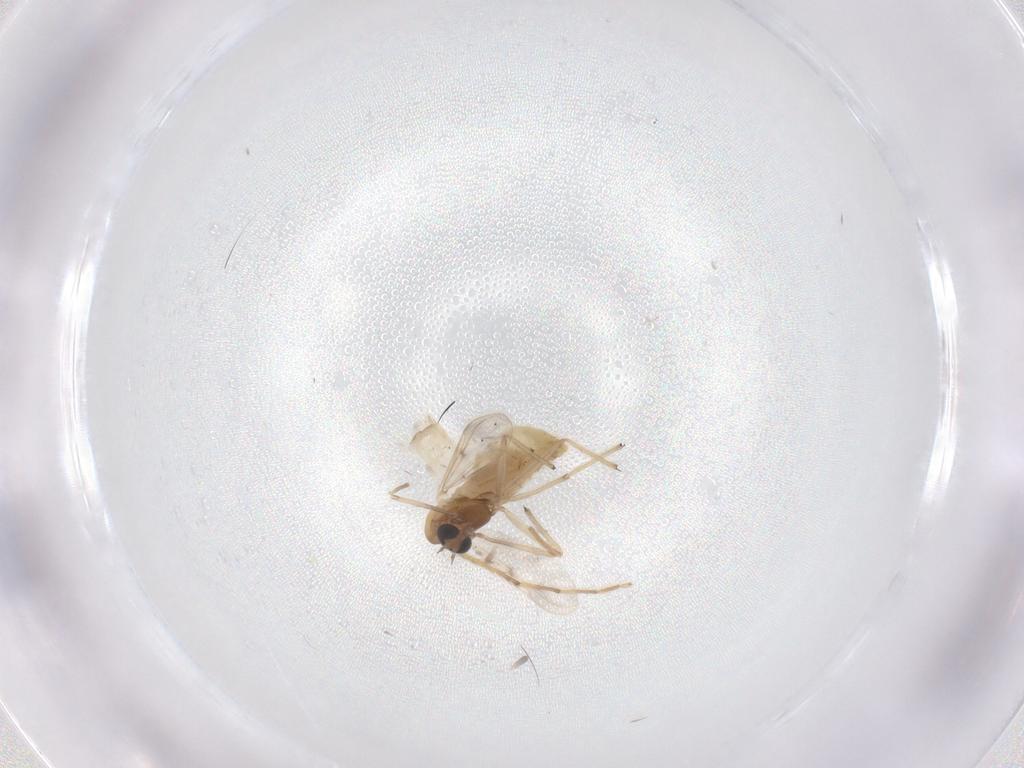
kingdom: Animalia
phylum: Arthropoda
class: Insecta
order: Diptera
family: Chironomidae
